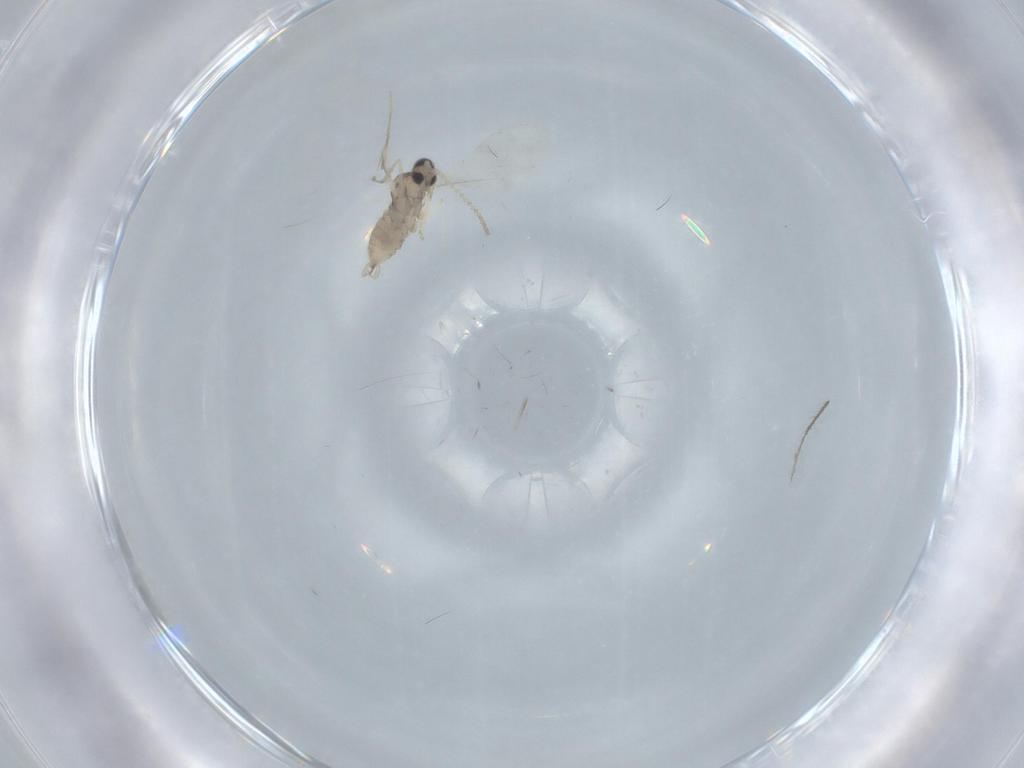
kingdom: Animalia
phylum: Arthropoda
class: Insecta
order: Diptera
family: Cecidomyiidae
